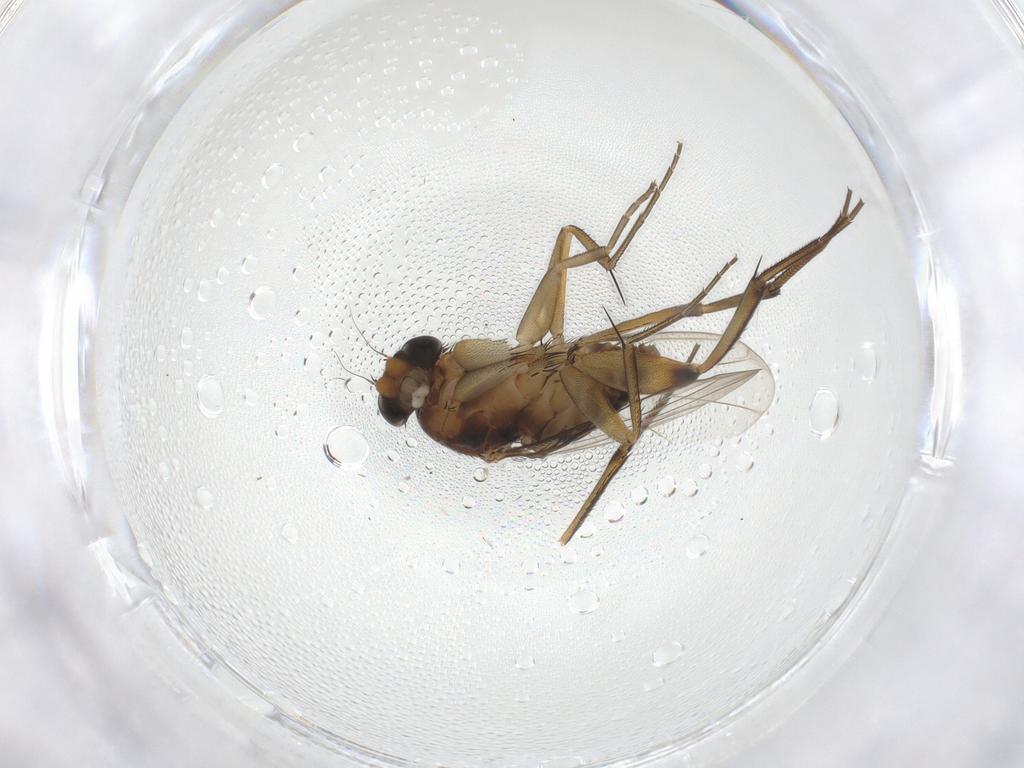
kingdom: Animalia
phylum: Arthropoda
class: Insecta
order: Diptera
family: Phoridae
